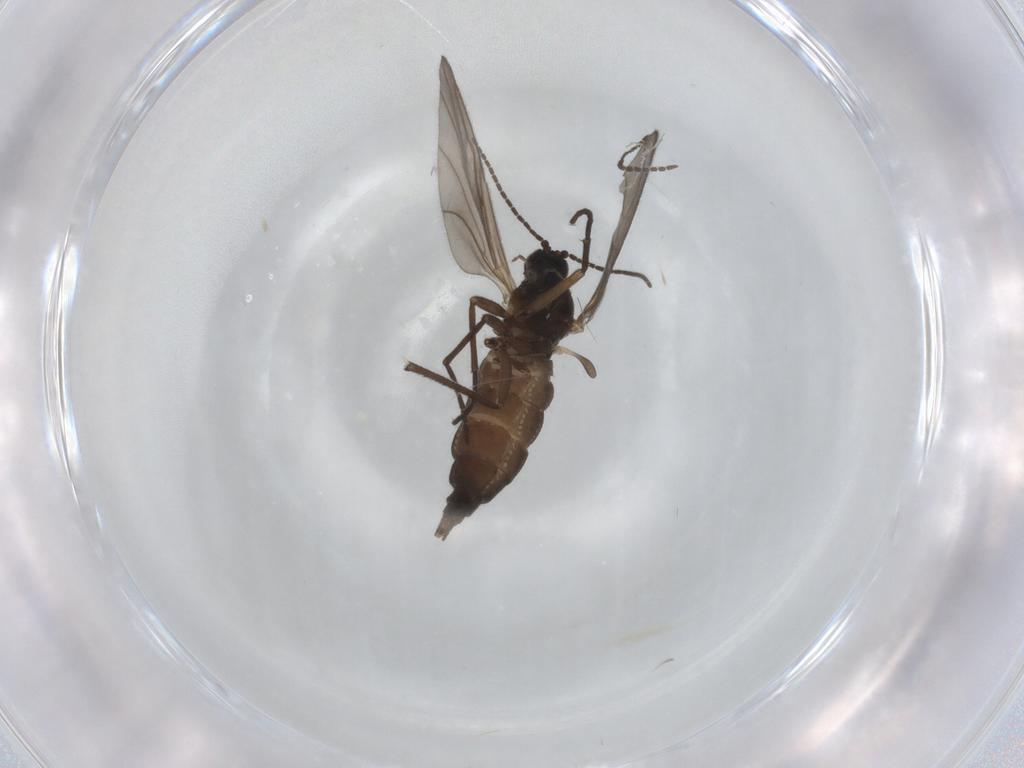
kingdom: Animalia
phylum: Arthropoda
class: Insecta
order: Diptera
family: Sciaridae
